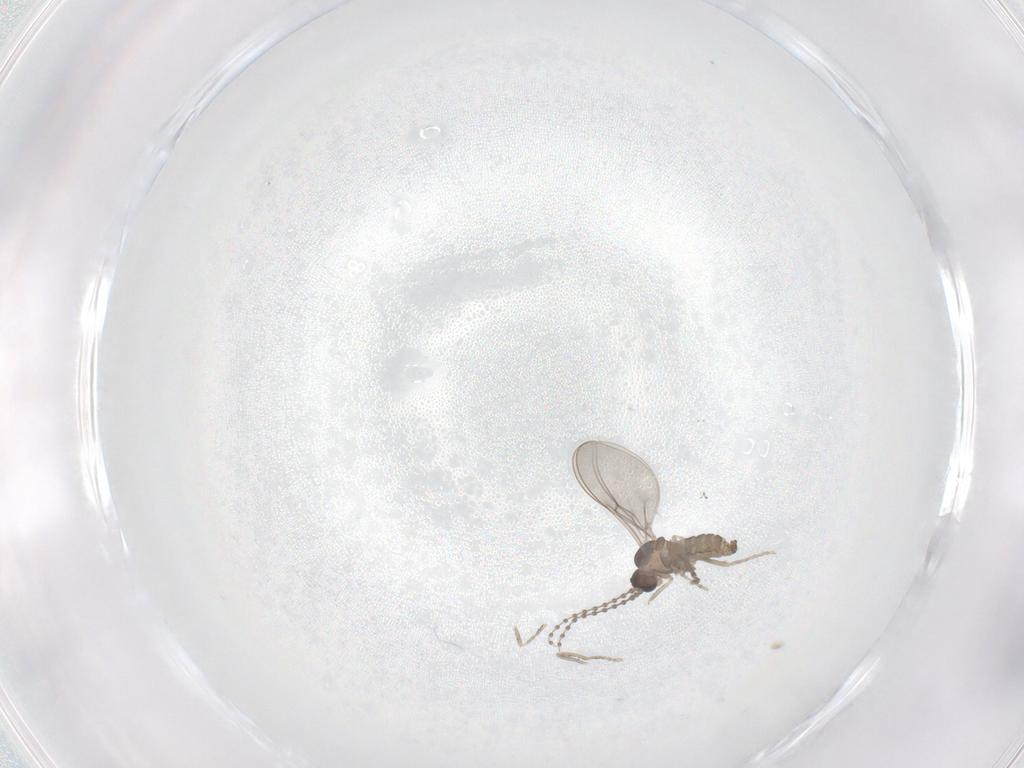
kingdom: Animalia
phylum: Arthropoda
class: Insecta
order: Diptera
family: Cecidomyiidae
